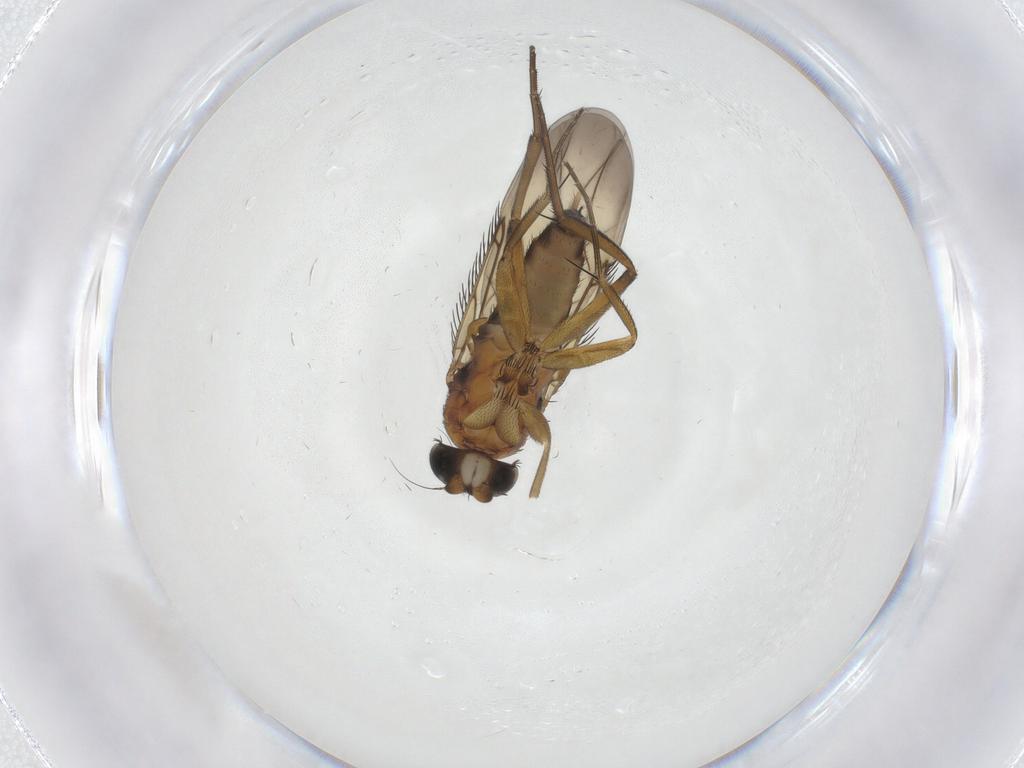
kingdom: Animalia
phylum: Arthropoda
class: Insecta
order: Diptera
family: Phoridae
